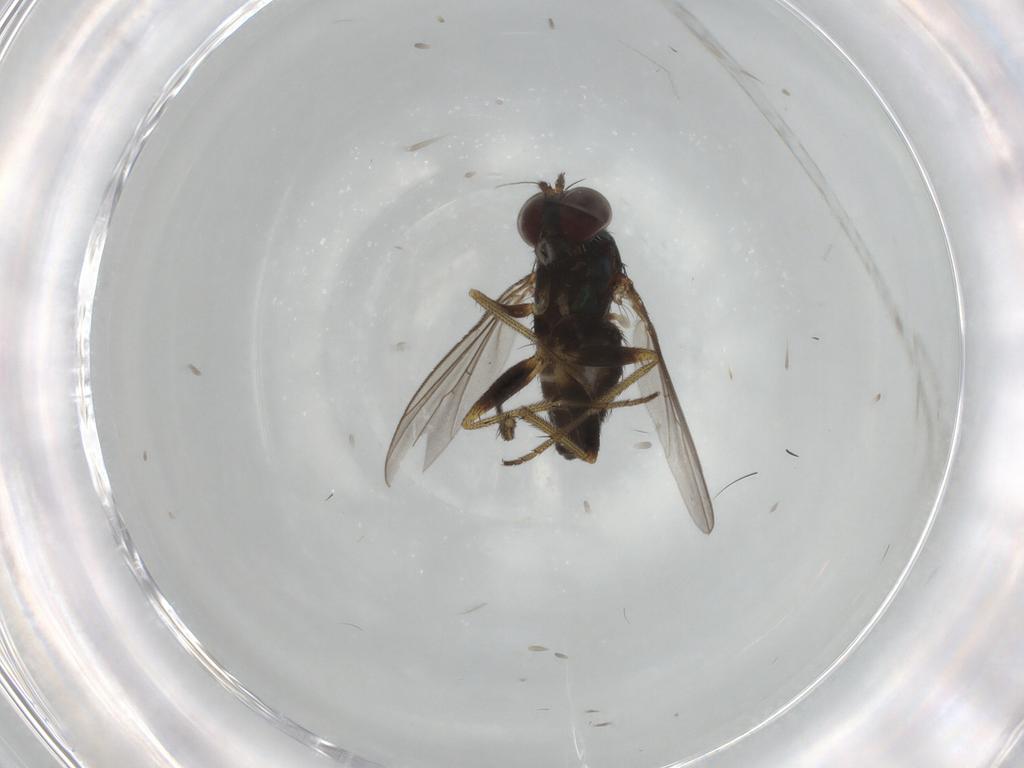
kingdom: Animalia
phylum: Arthropoda
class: Insecta
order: Diptera
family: Dolichopodidae
